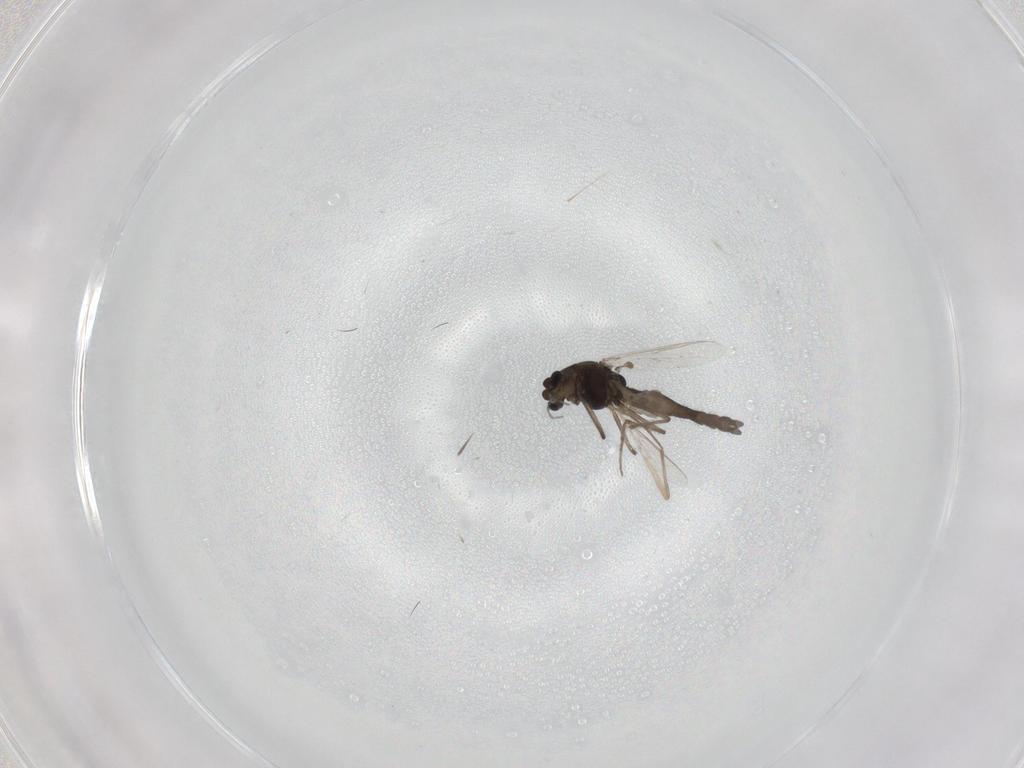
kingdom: Animalia
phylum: Arthropoda
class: Insecta
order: Diptera
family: Chironomidae
